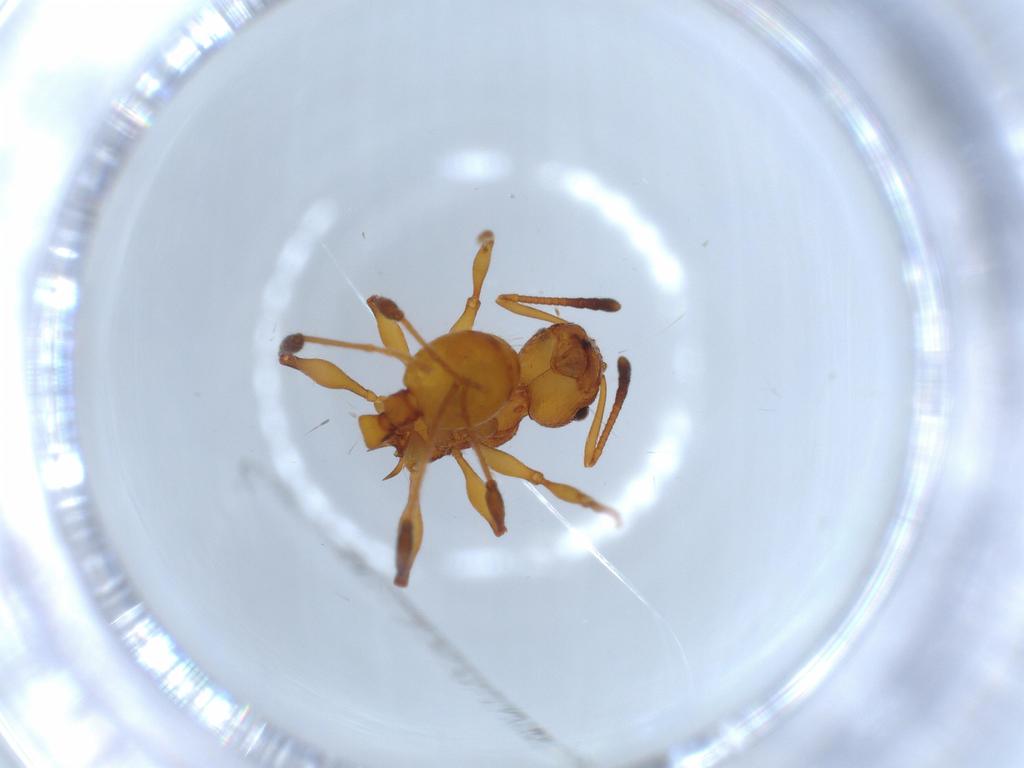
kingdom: Animalia
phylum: Arthropoda
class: Insecta
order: Hymenoptera
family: Formicidae
